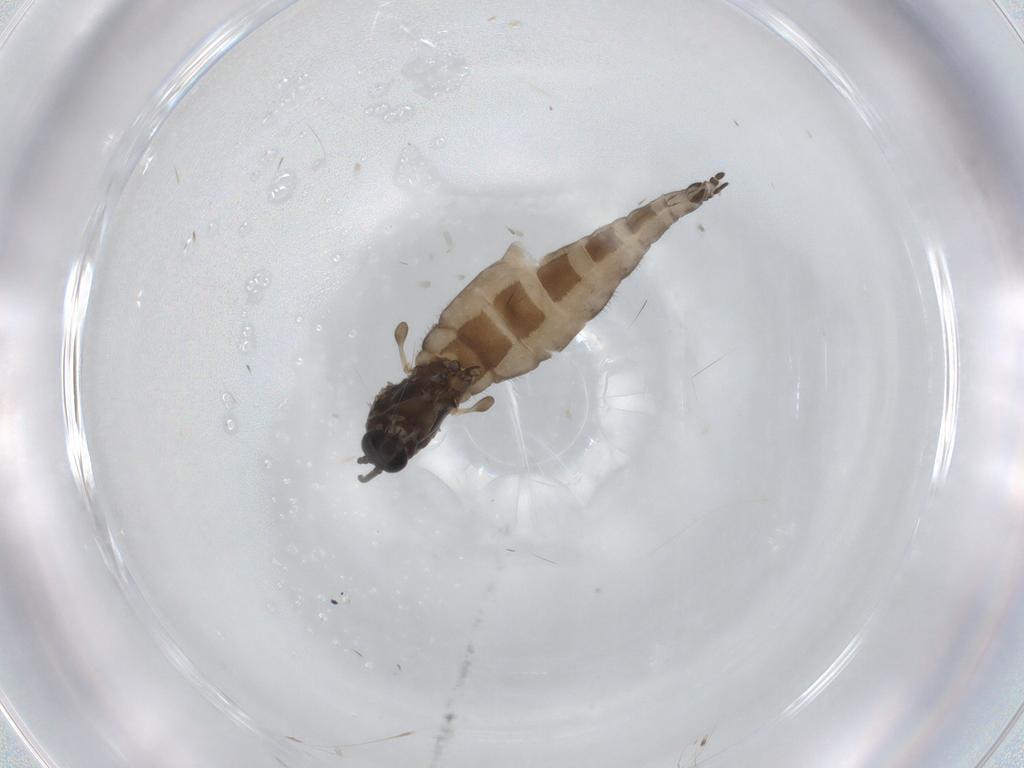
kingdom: Animalia
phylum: Arthropoda
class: Insecta
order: Diptera
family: Sciaridae
